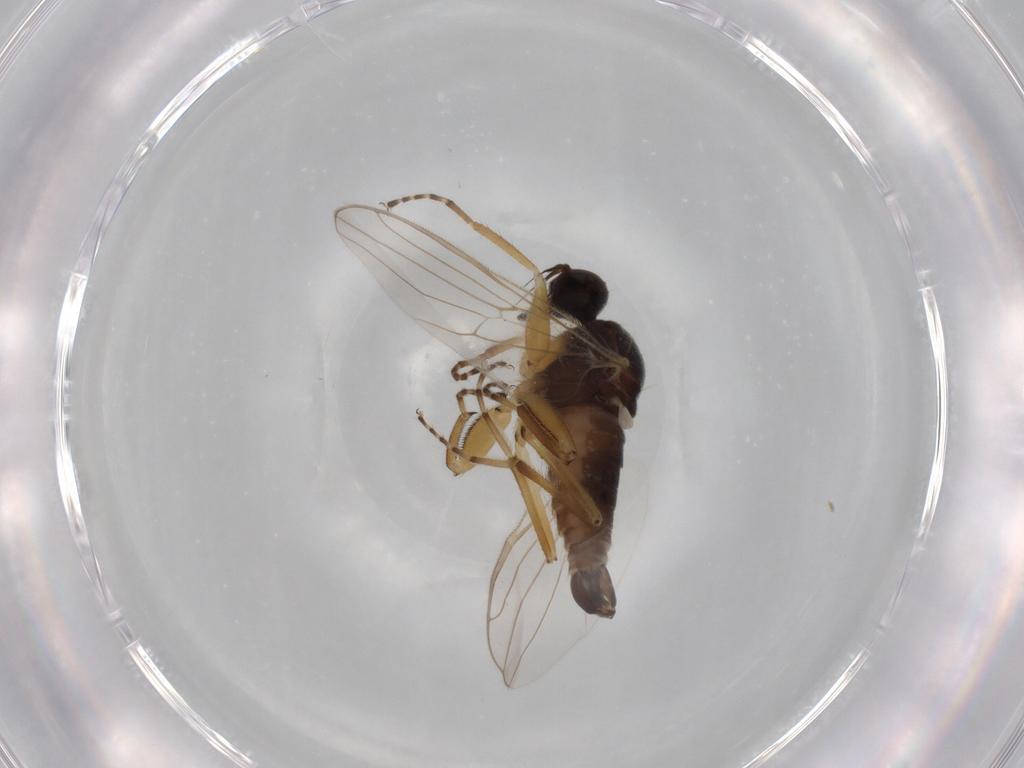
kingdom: Animalia
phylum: Arthropoda
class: Insecta
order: Diptera
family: Hybotidae
